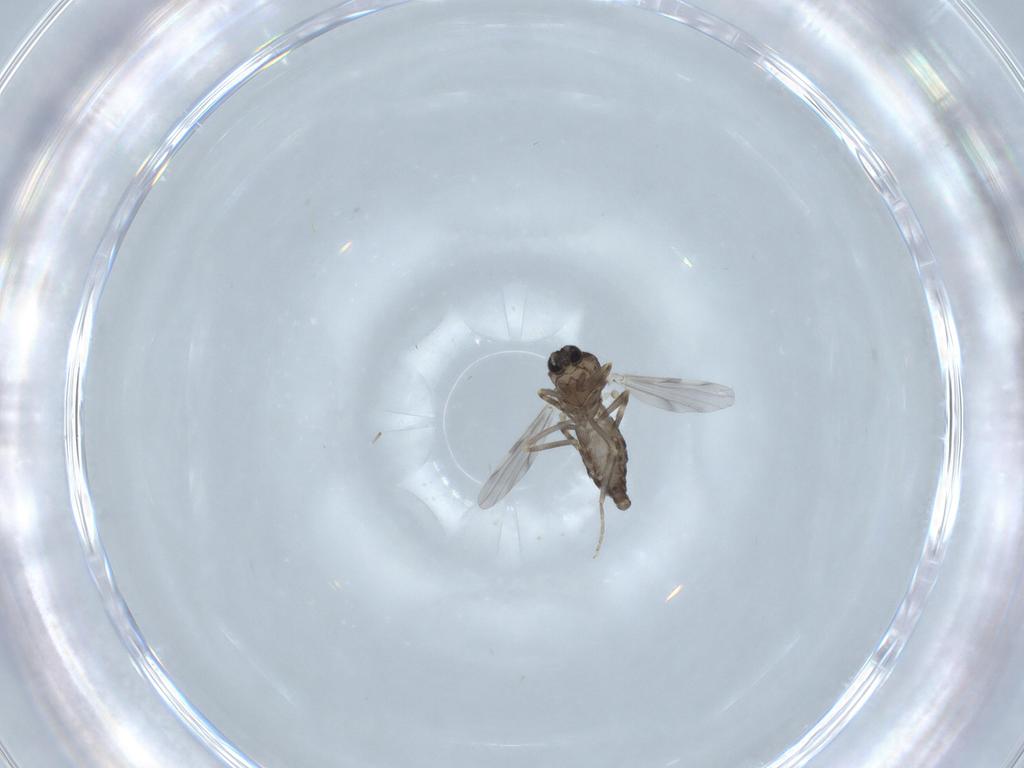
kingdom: Animalia
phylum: Arthropoda
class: Insecta
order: Diptera
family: Ceratopogonidae
